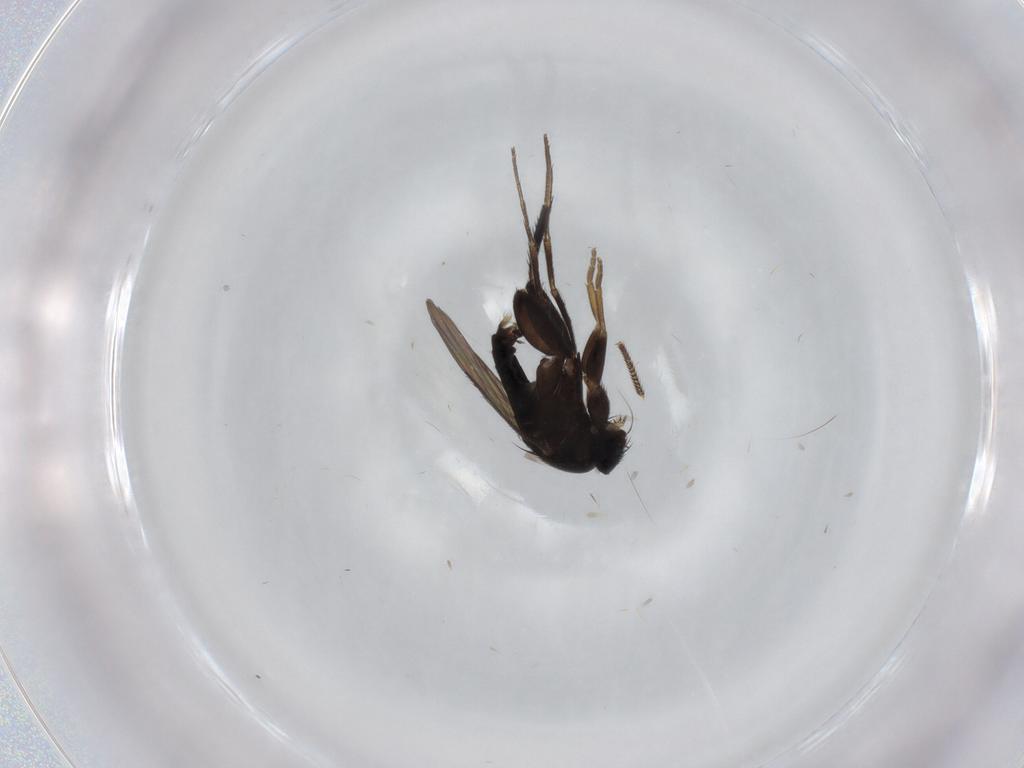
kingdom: Animalia
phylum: Arthropoda
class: Insecta
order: Diptera
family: Phoridae
